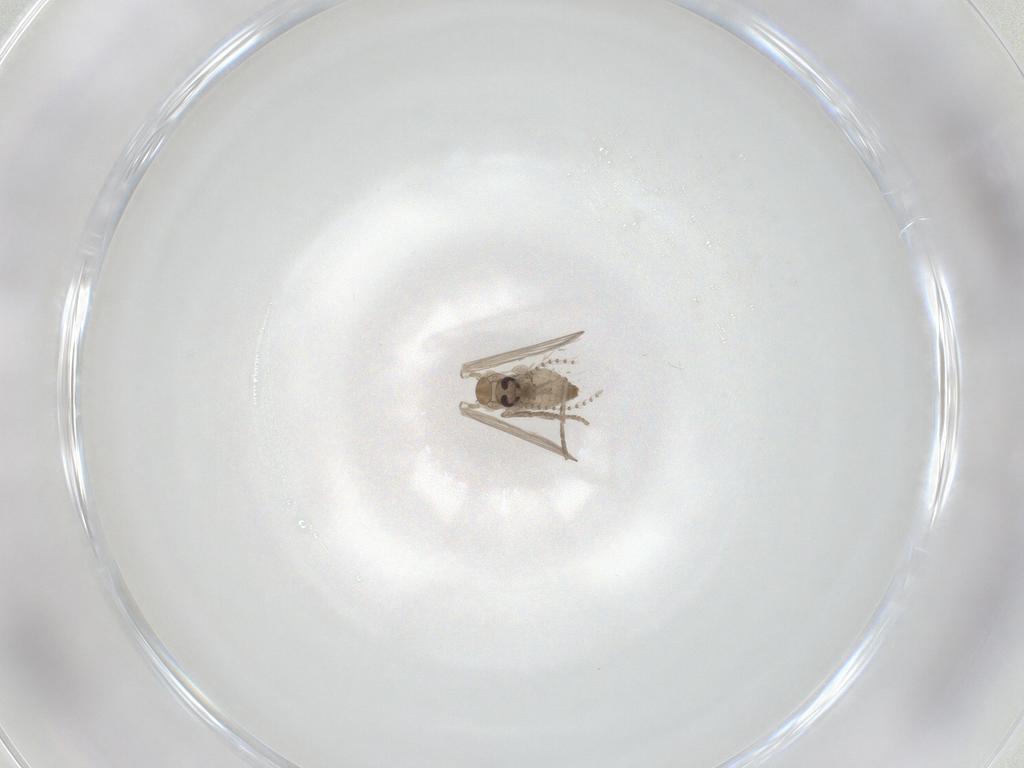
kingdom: Animalia
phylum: Arthropoda
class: Insecta
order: Diptera
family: Psychodidae
